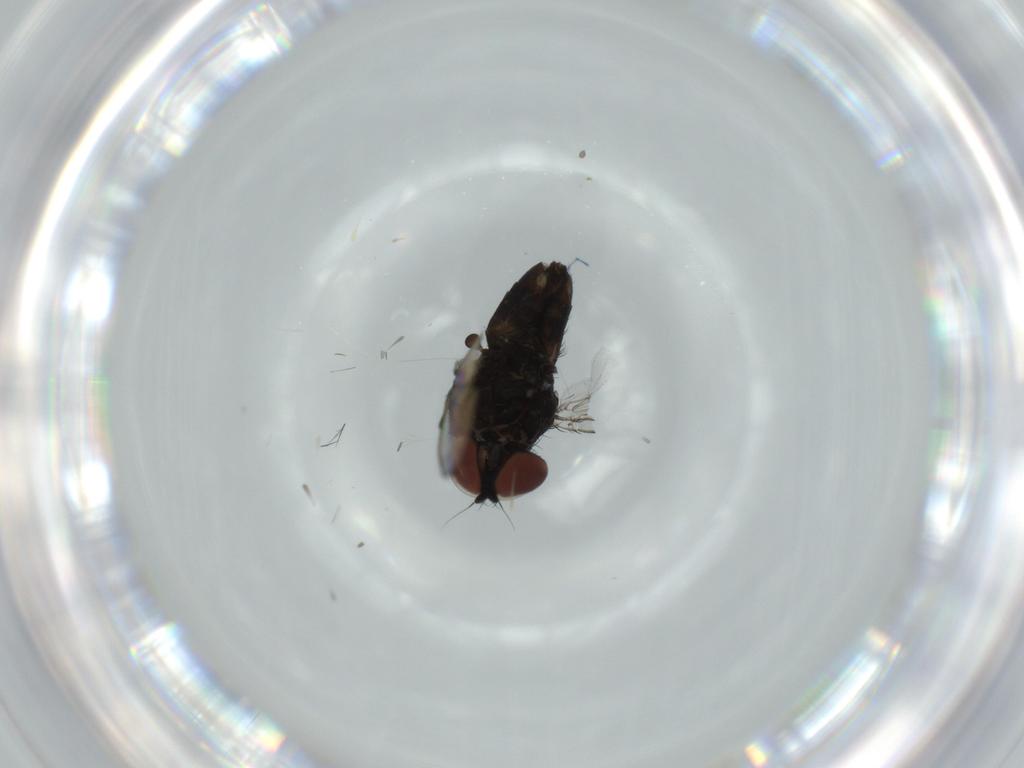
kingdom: Animalia
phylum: Arthropoda
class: Insecta
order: Diptera
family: Milichiidae
